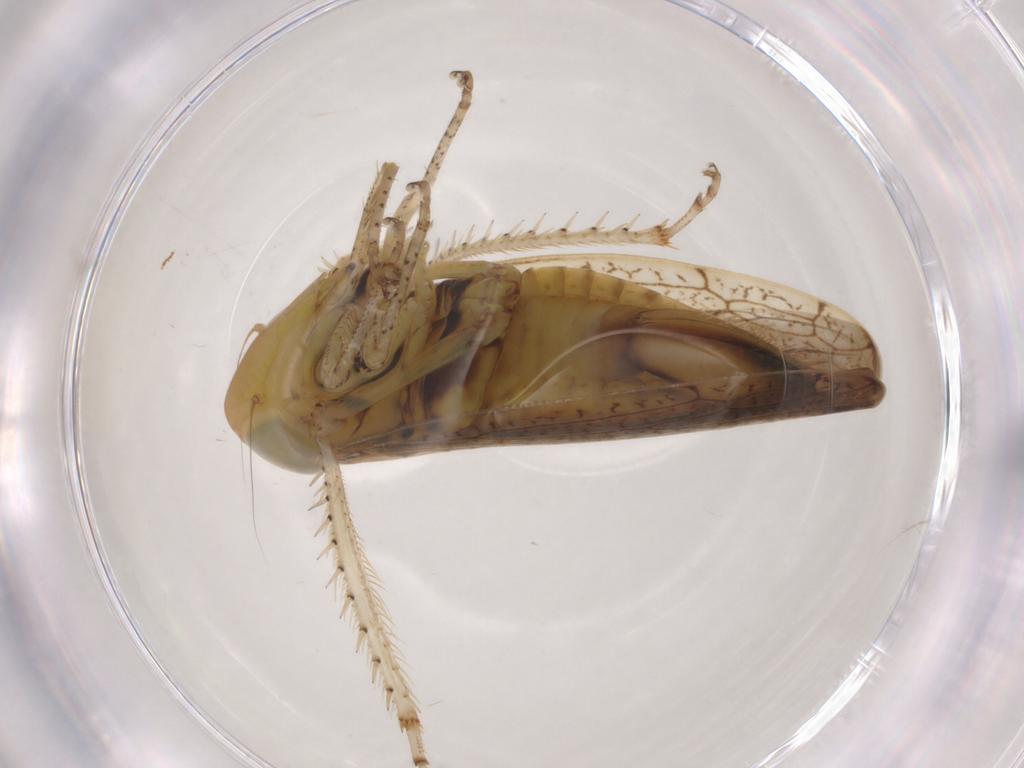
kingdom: Animalia
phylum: Arthropoda
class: Insecta
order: Hemiptera
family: Cicadellidae
